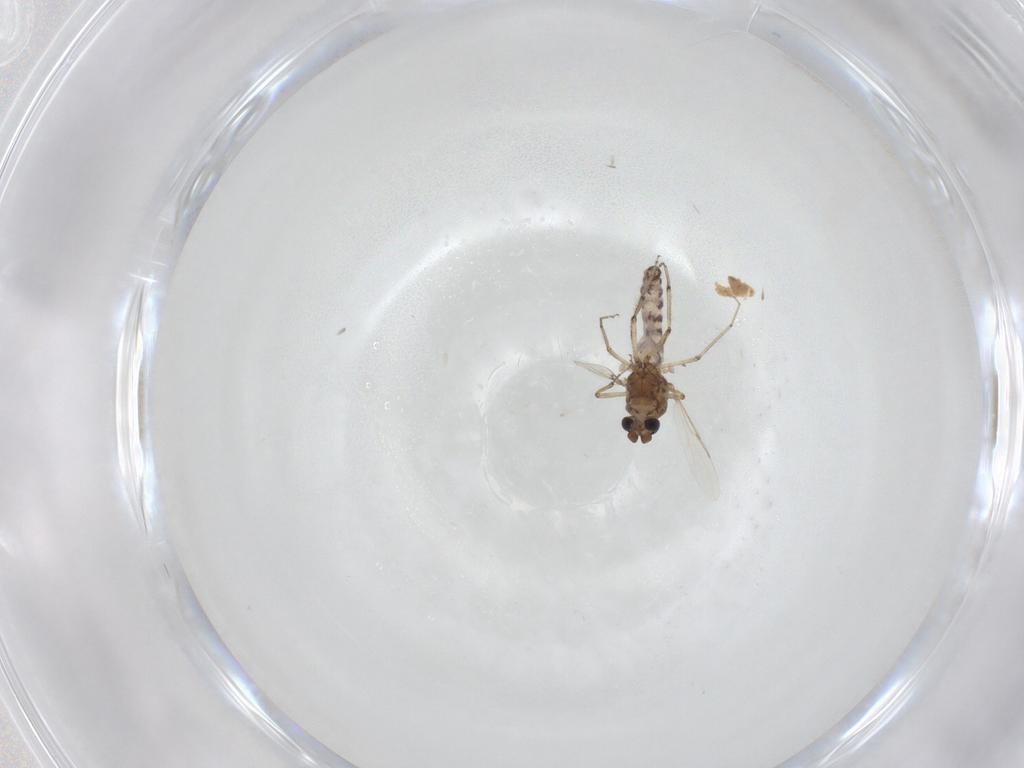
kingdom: Animalia
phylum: Arthropoda
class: Insecta
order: Diptera
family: Ceratopogonidae
